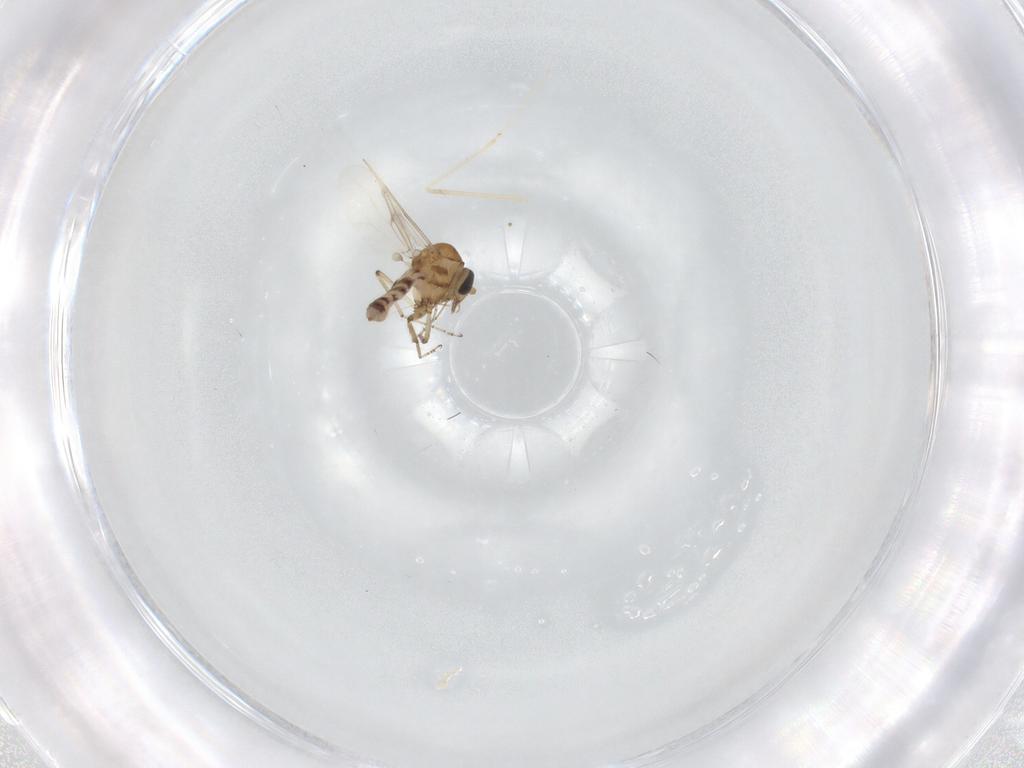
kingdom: Animalia
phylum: Arthropoda
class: Insecta
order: Diptera
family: Ceratopogonidae
